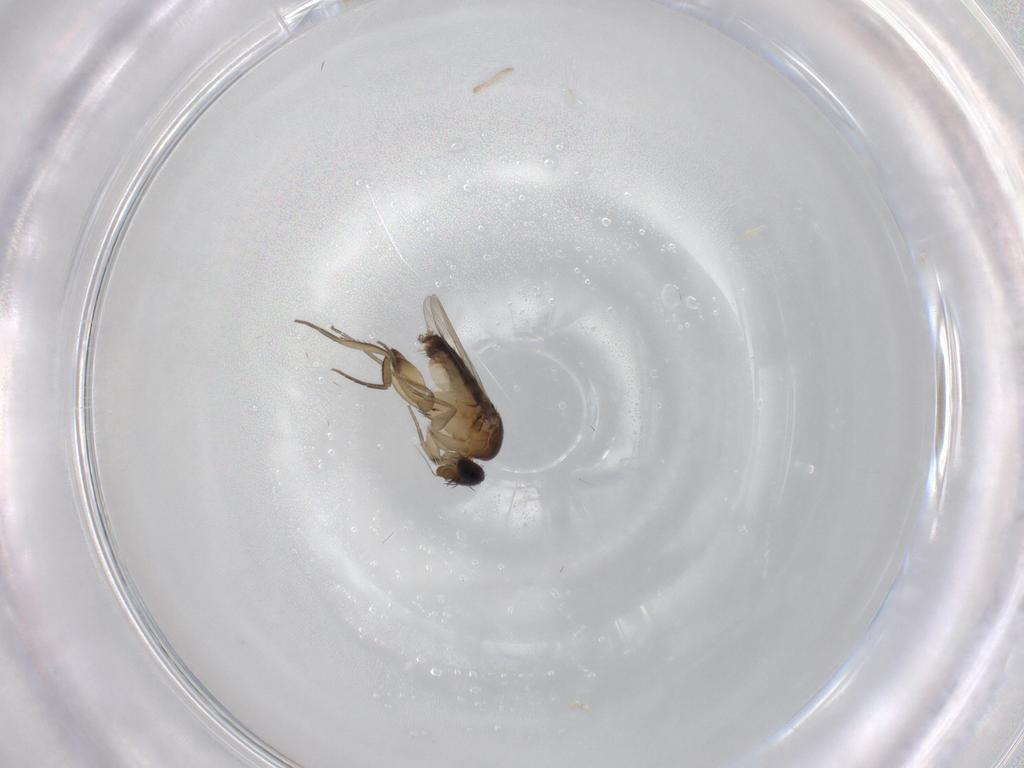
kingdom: Animalia
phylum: Arthropoda
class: Insecta
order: Diptera
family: Phoridae
